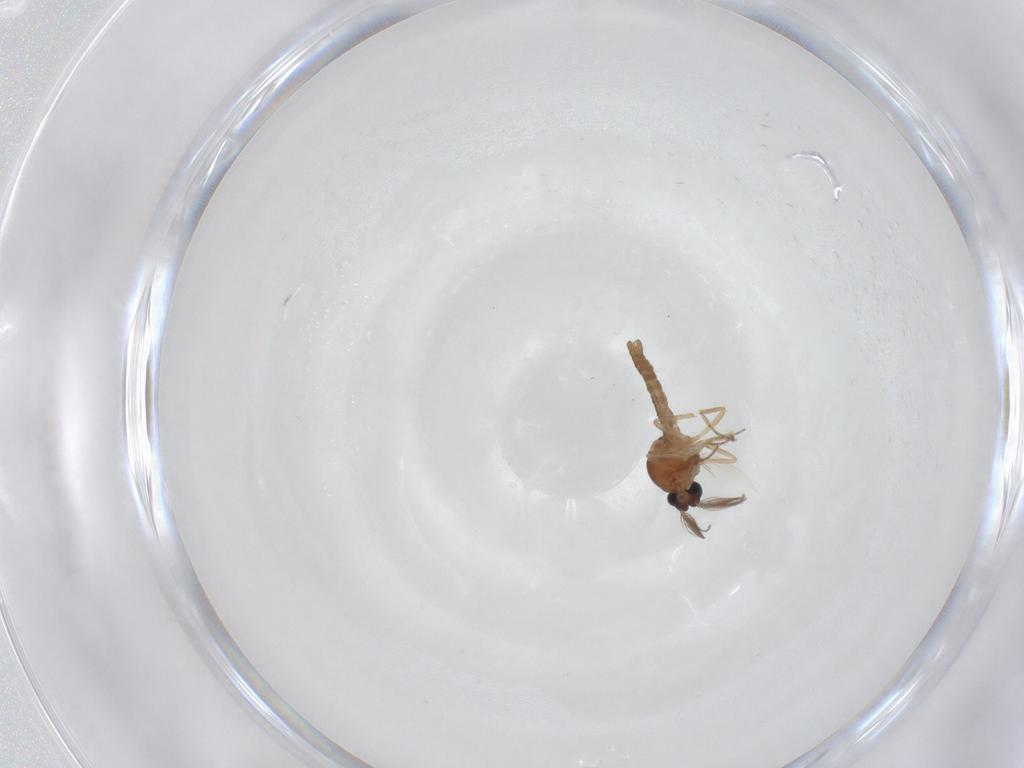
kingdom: Animalia
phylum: Arthropoda
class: Insecta
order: Diptera
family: Ceratopogonidae
